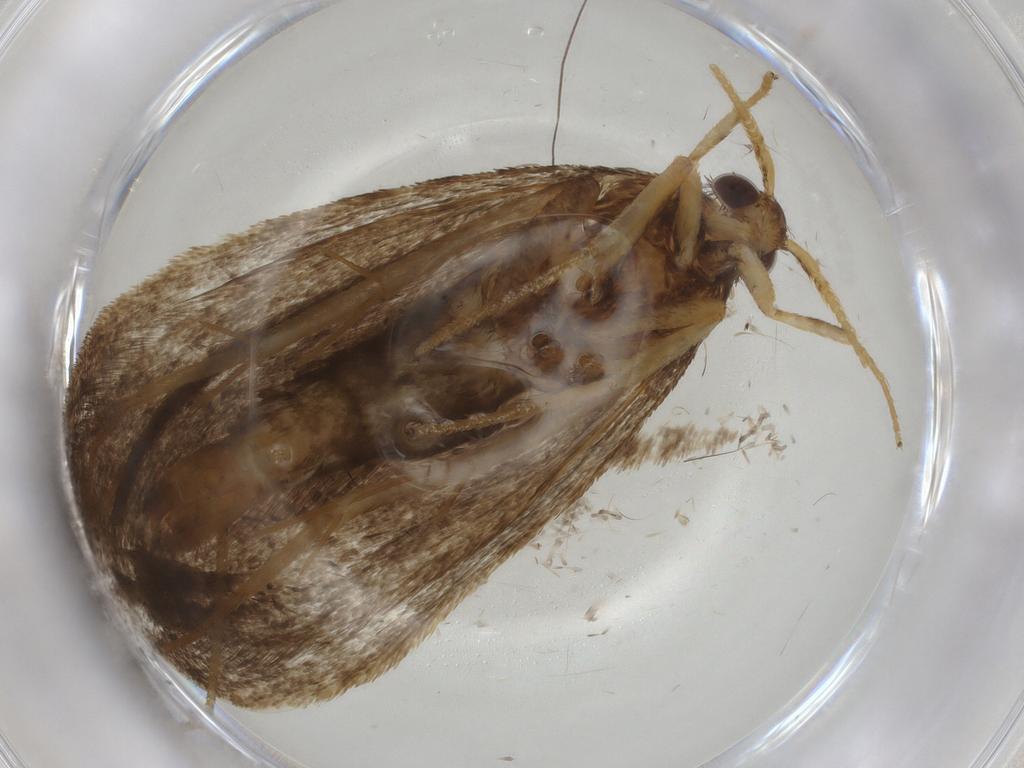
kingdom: Animalia
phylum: Arthropoda
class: Insecta
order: Lepidoptera
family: Lecithoceridae
